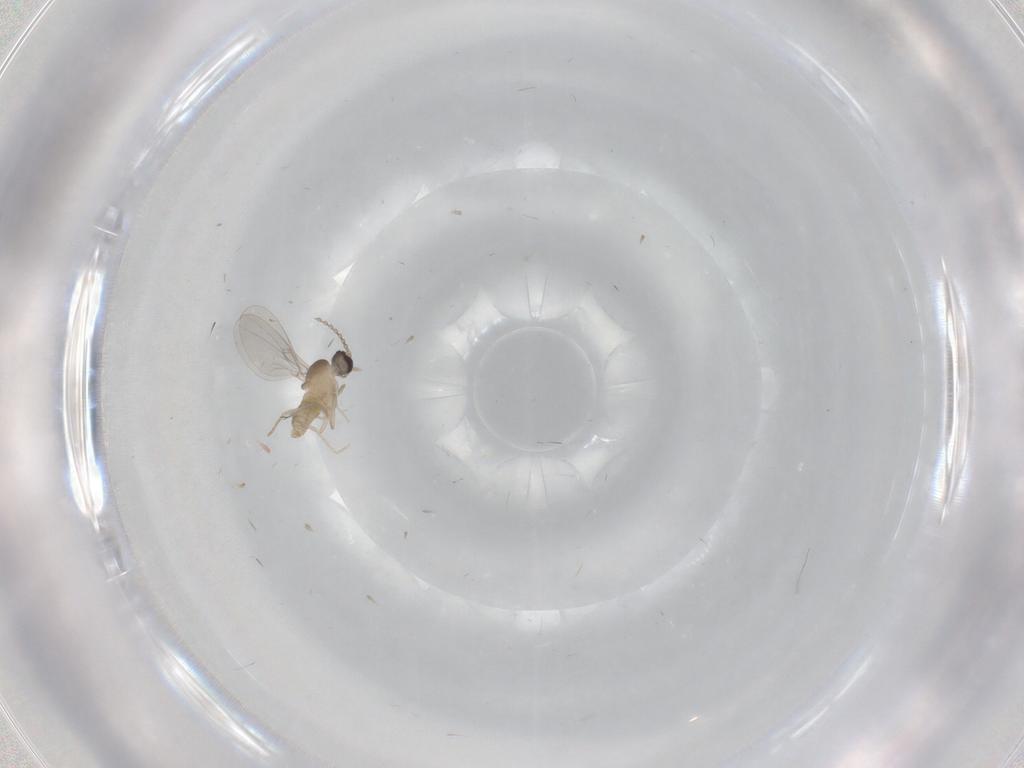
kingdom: Animalia
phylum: Arthropoda
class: Insecta
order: Diptera
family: Cecidomyiidae
